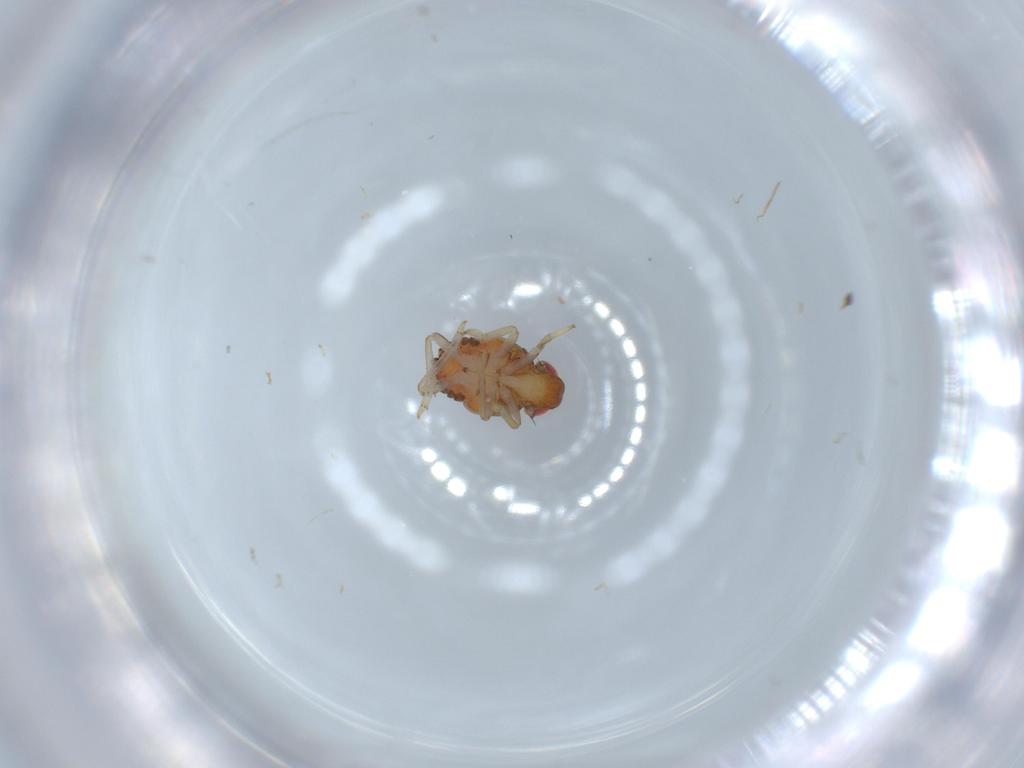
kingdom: Animalia
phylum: Arthropoda
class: Insecta
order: Hemiptera
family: Issidae
